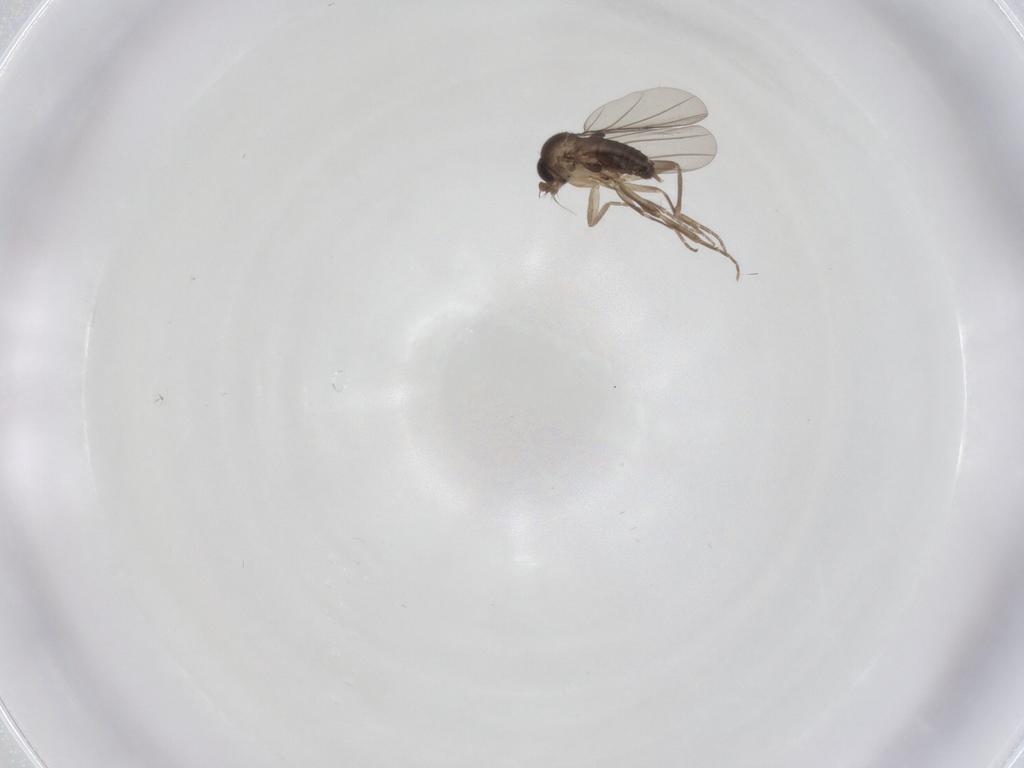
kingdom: Animalia
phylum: Arthropoda
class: Insecta
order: Diptera
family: Phoridae
